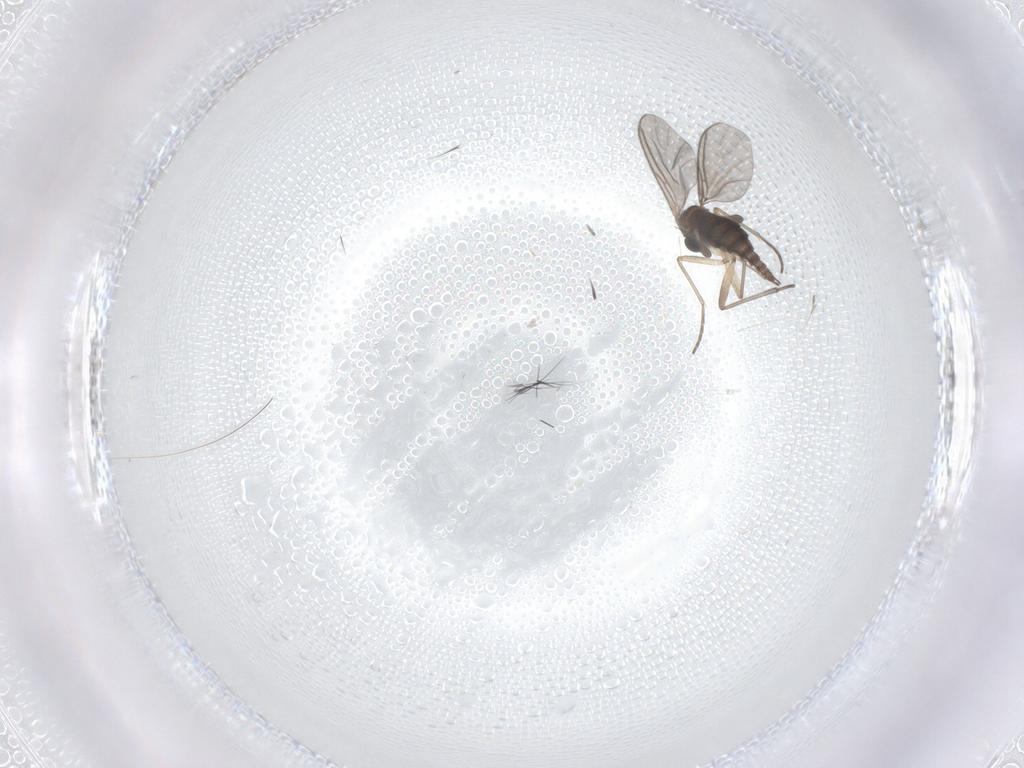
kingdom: Animalia
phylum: Arthropoda
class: Insecta
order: Diptera
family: Sciaridae
